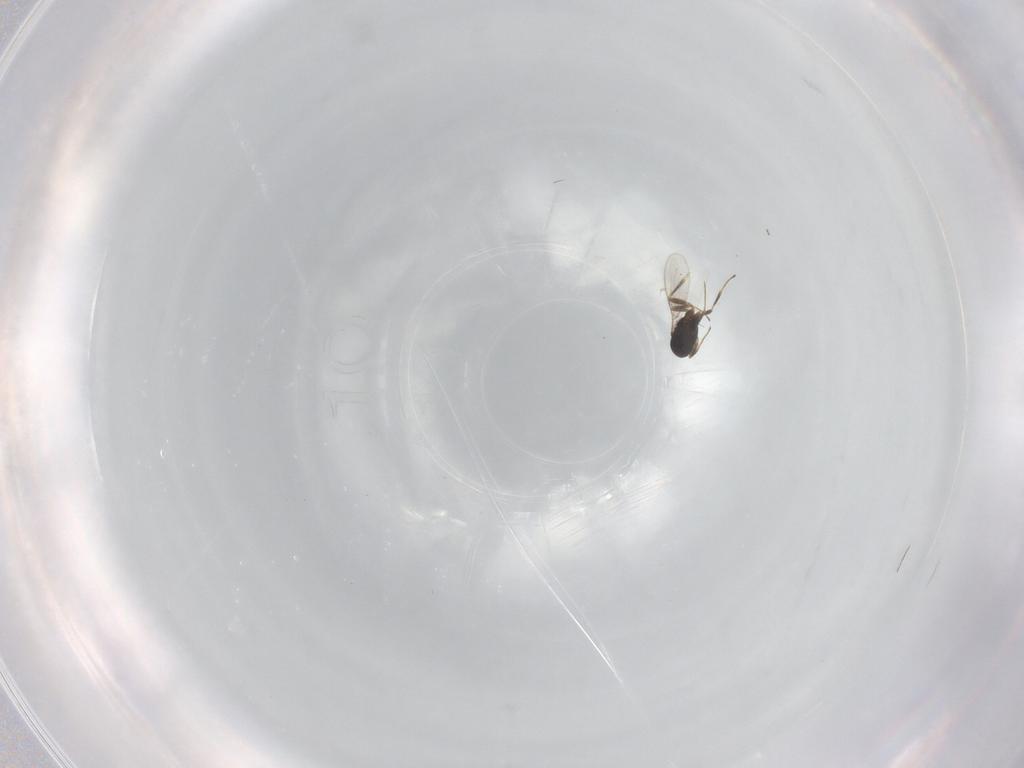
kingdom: Animalia
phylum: Arthropoda
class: Insecta
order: Hymenoptera
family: Scelionidae
